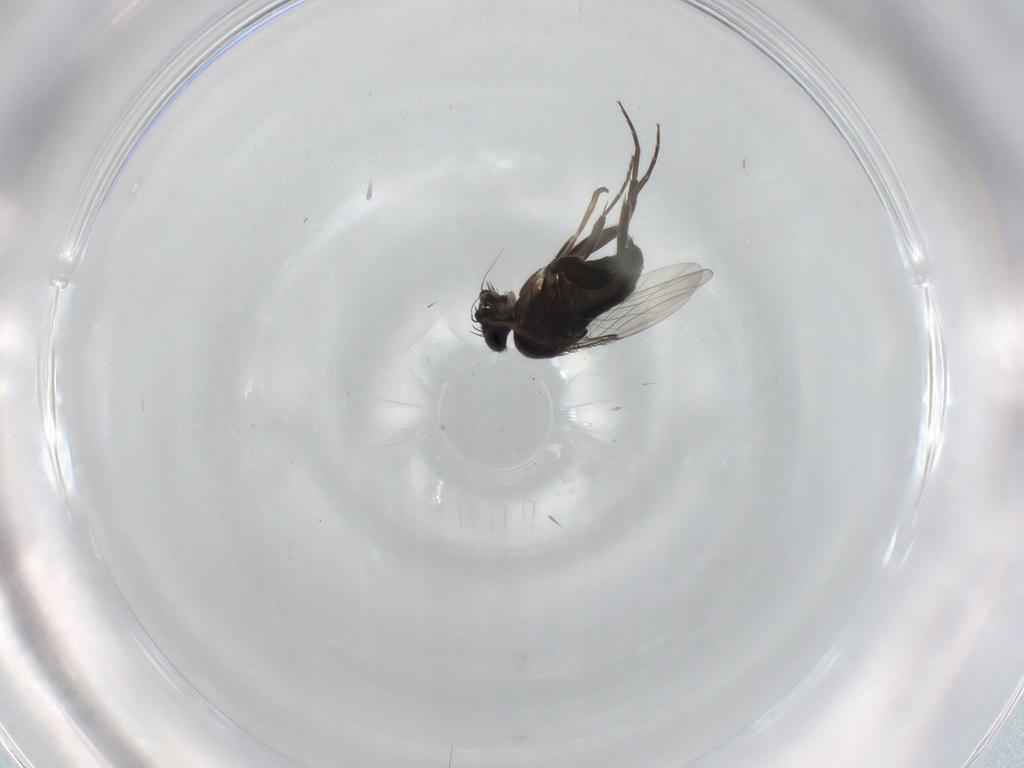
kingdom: Animalia
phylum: Arthropoda
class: Insecta
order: Diptera
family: Phoridae
